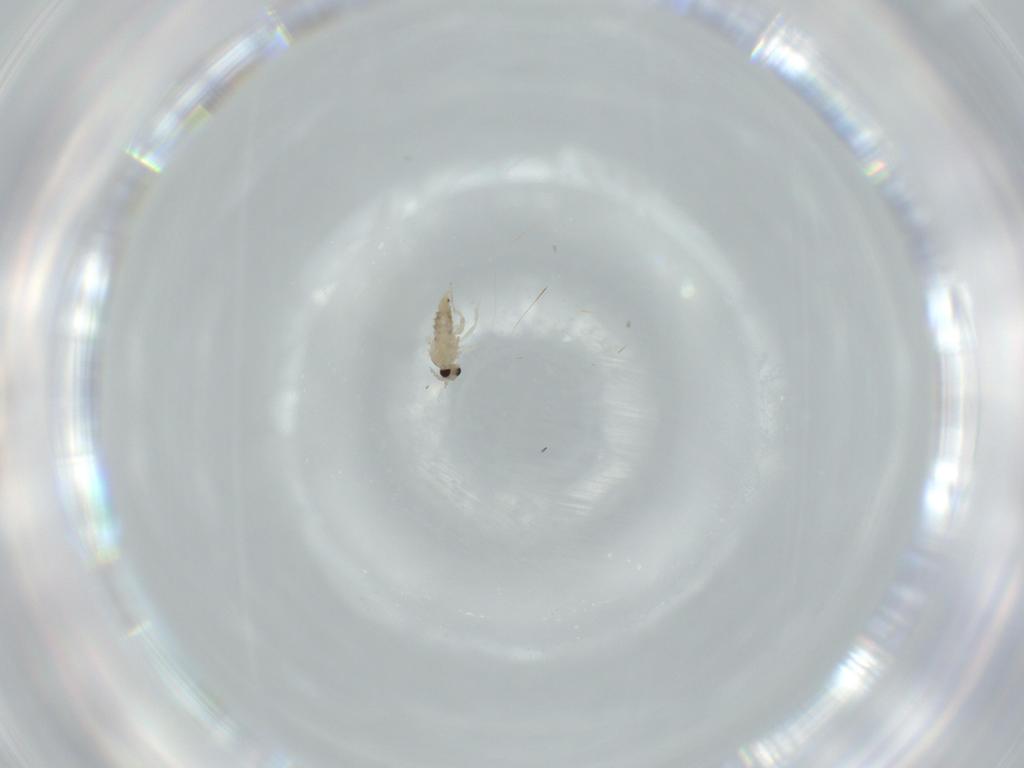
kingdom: Animalia
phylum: Arthropoda
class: Insecta
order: Diptera
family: Cecidomyiidae
